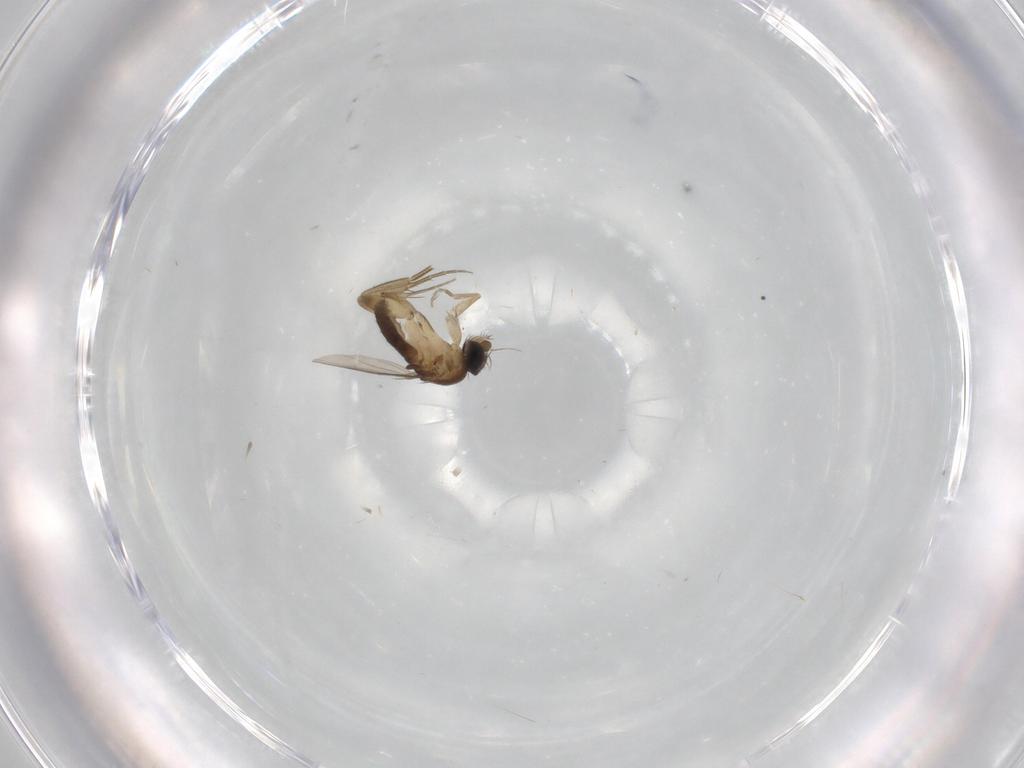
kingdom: Animalia
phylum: Arthropoda
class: Insecta
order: Diptera
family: Phoridae
